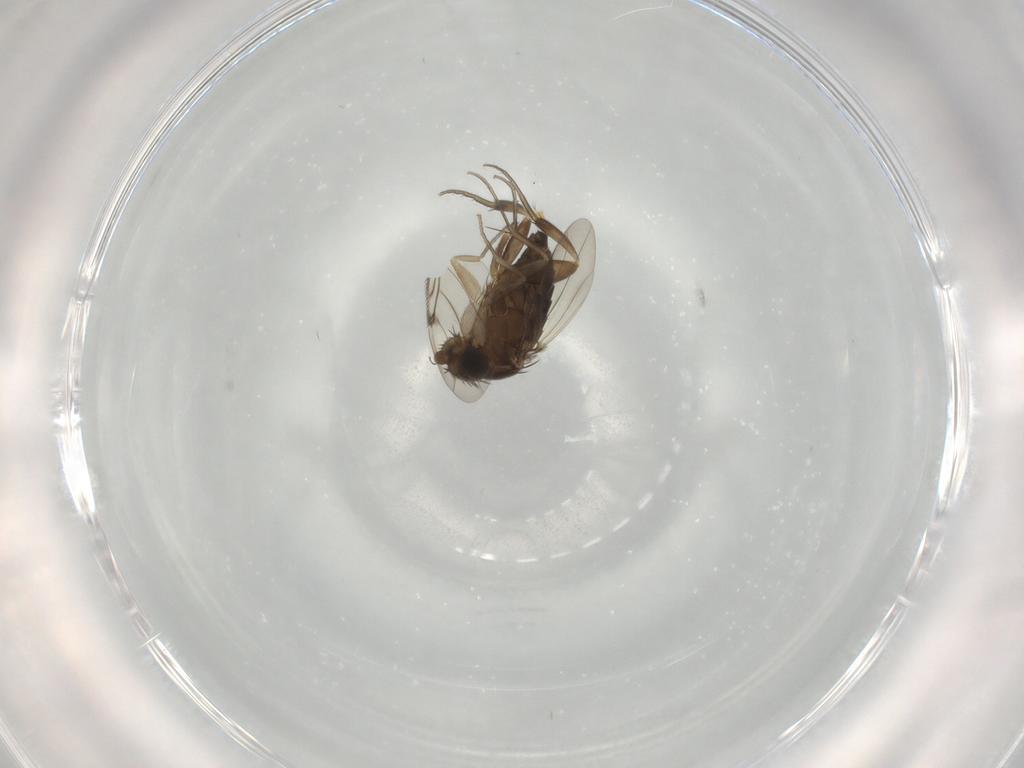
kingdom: Animalia
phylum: Arthropoda
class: Insecta
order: Diptera
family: Phoridae
